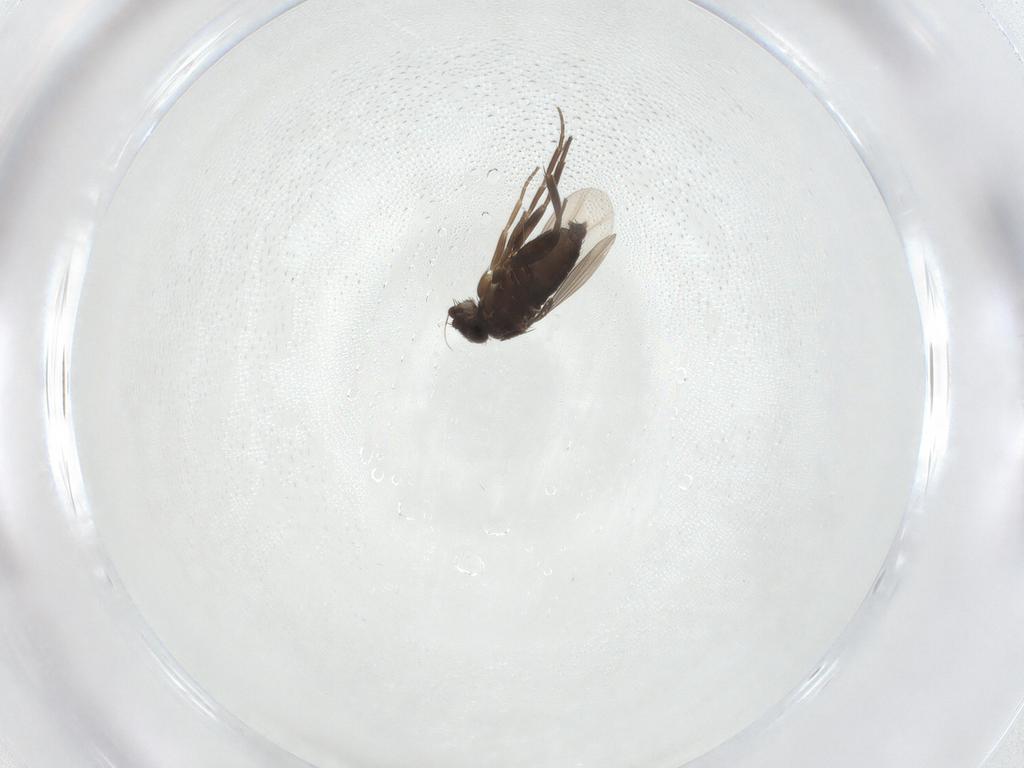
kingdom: Animalia
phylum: Arthropoda
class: Insecta
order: Diptera
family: Phoridae
